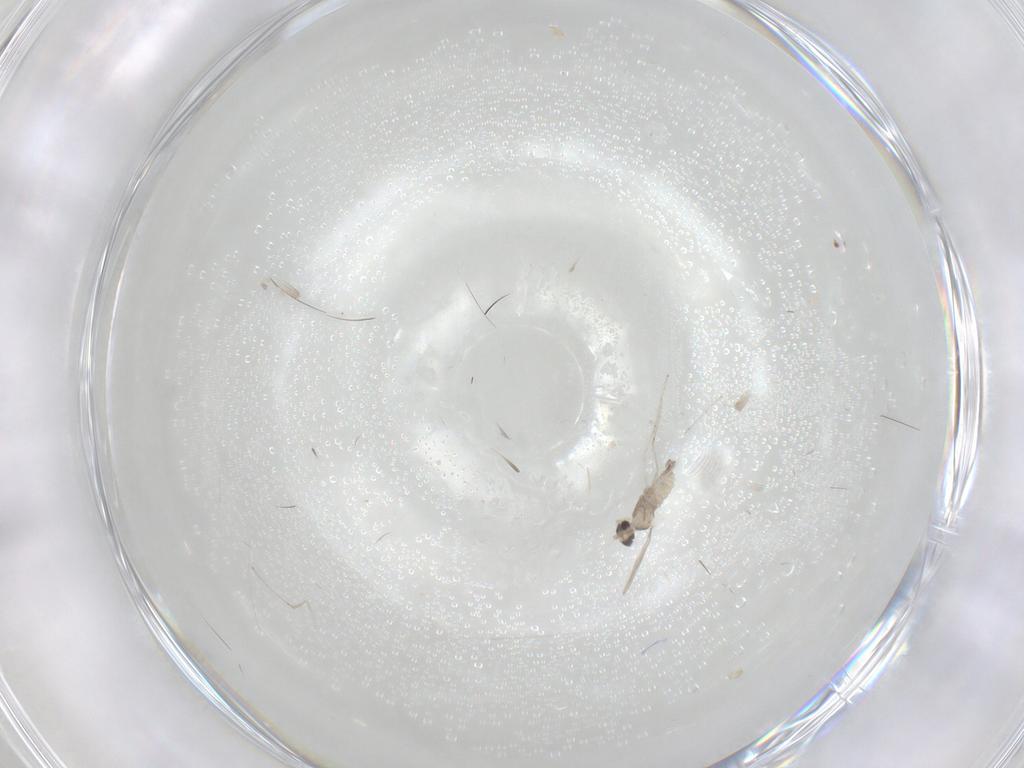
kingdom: Animalia
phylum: Arthropoda
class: Insecta
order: Diptera
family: Cecidomyiidae
